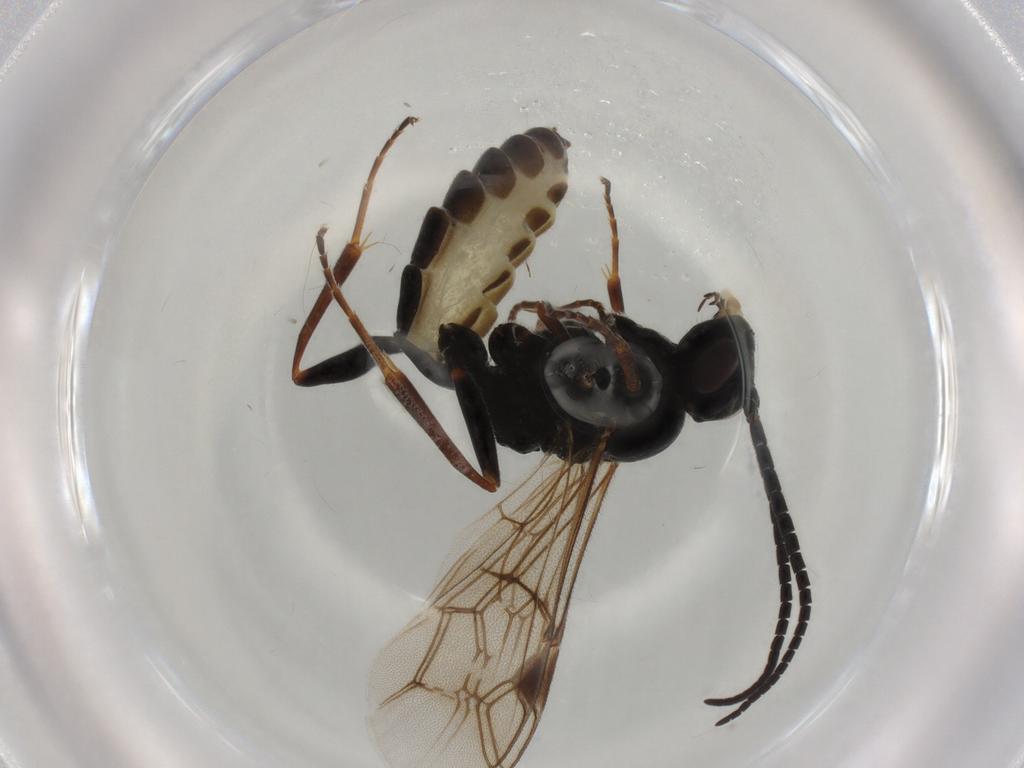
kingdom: Animalia
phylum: Arthropoda
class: Insecta
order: Hymenoptera
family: Ichneumonidae
